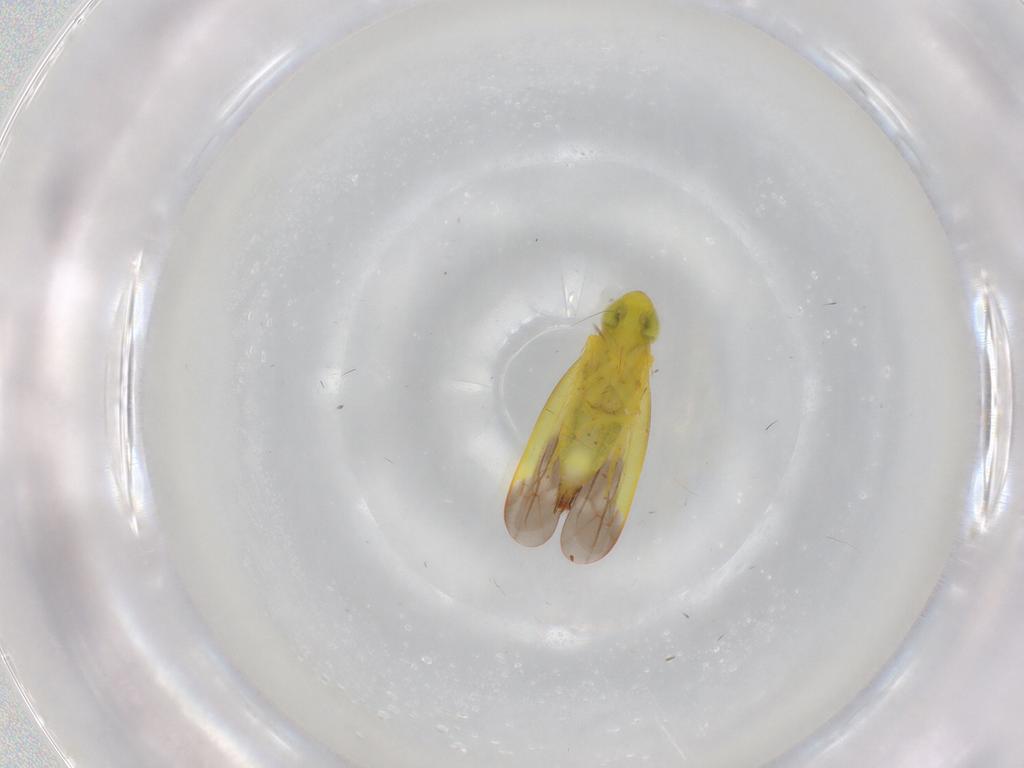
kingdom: Animalia
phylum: Arthropoda
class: Insecta
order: Hemiptera
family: Cicadellidae
